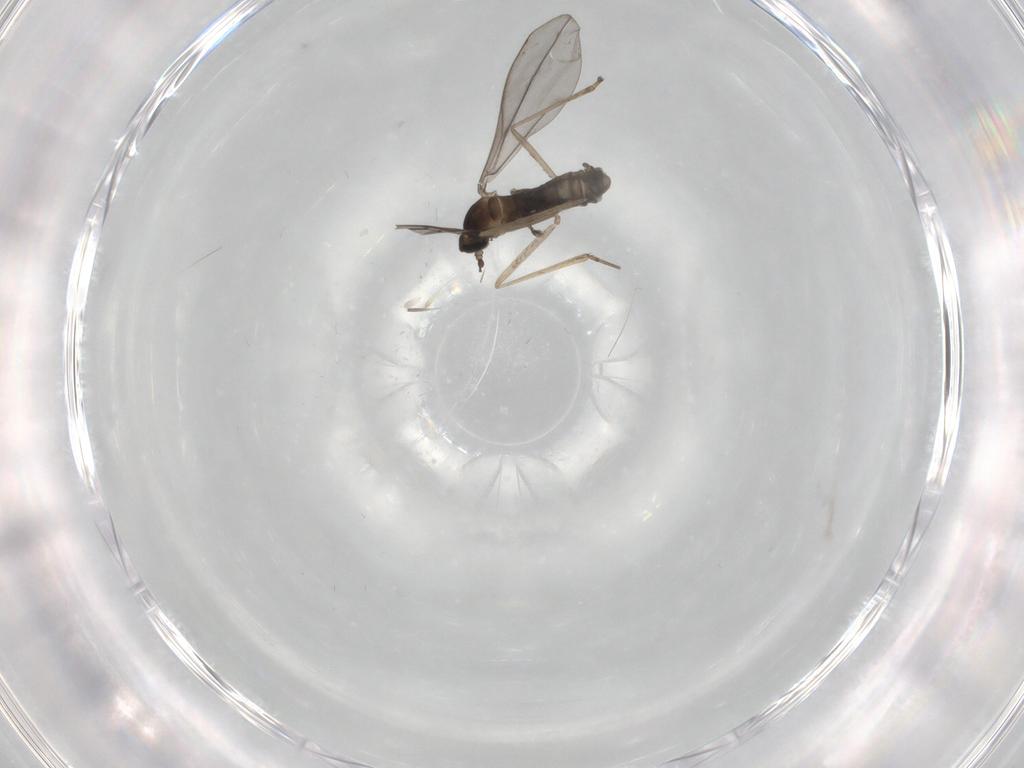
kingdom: Animalia
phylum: Arthropoda
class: Insecta
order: Diptera
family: Cecidomyiidae
